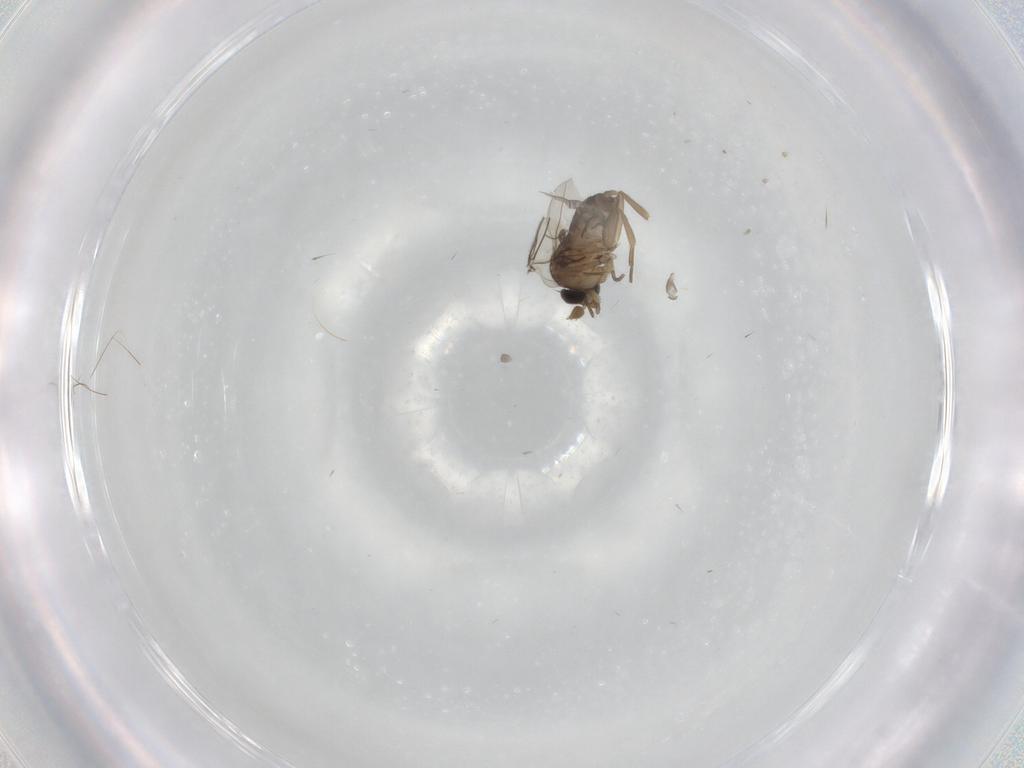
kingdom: Animalia
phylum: Arthropoda
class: Insecta
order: Diptera
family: Phoridae
